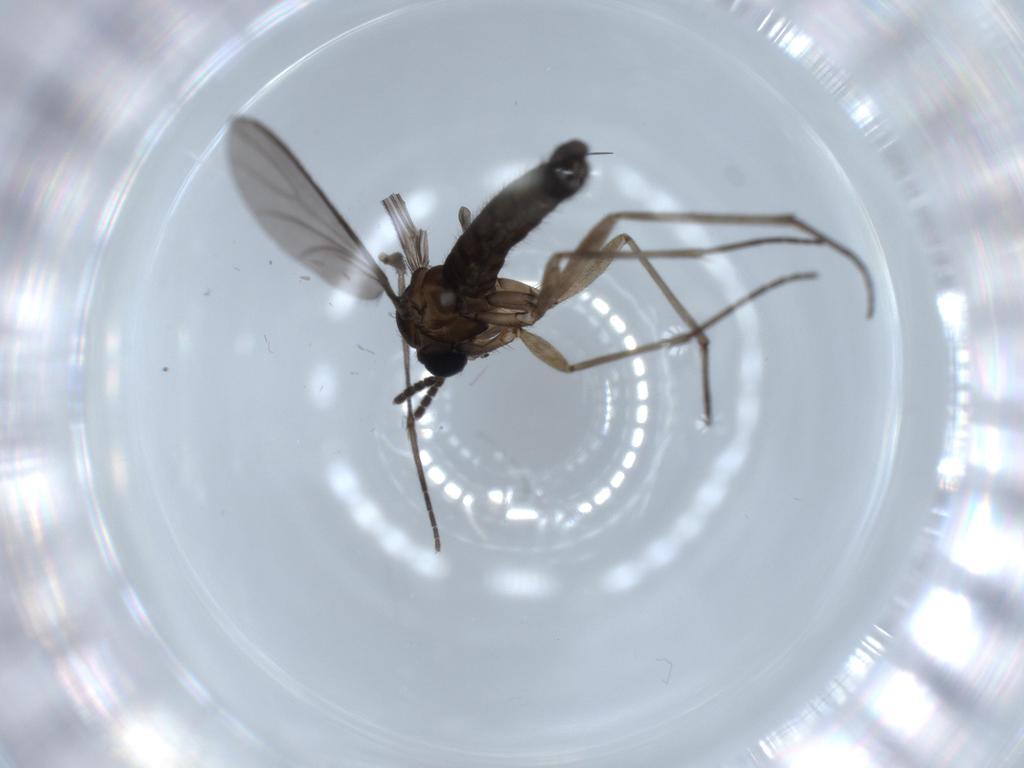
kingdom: Animalia
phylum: Arthropoda
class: Insecta
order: Diptera
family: Sciaridae
